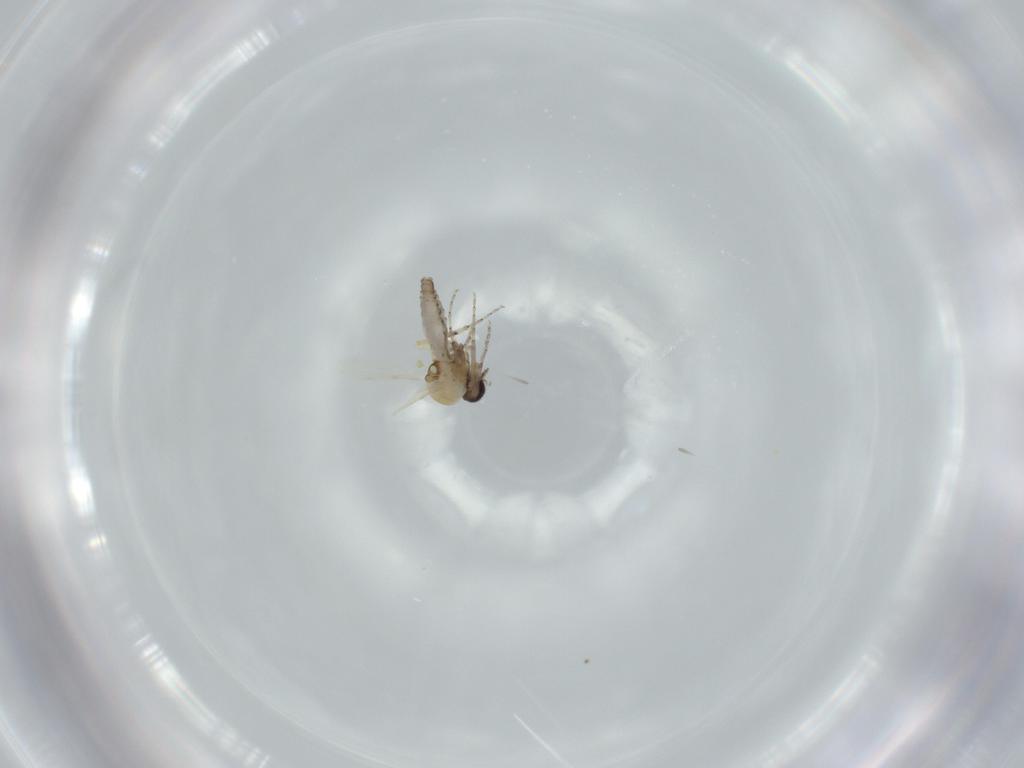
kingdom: Animalia
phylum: Arthropoda
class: Insecta
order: Diptera
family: Ceratopogonidae
